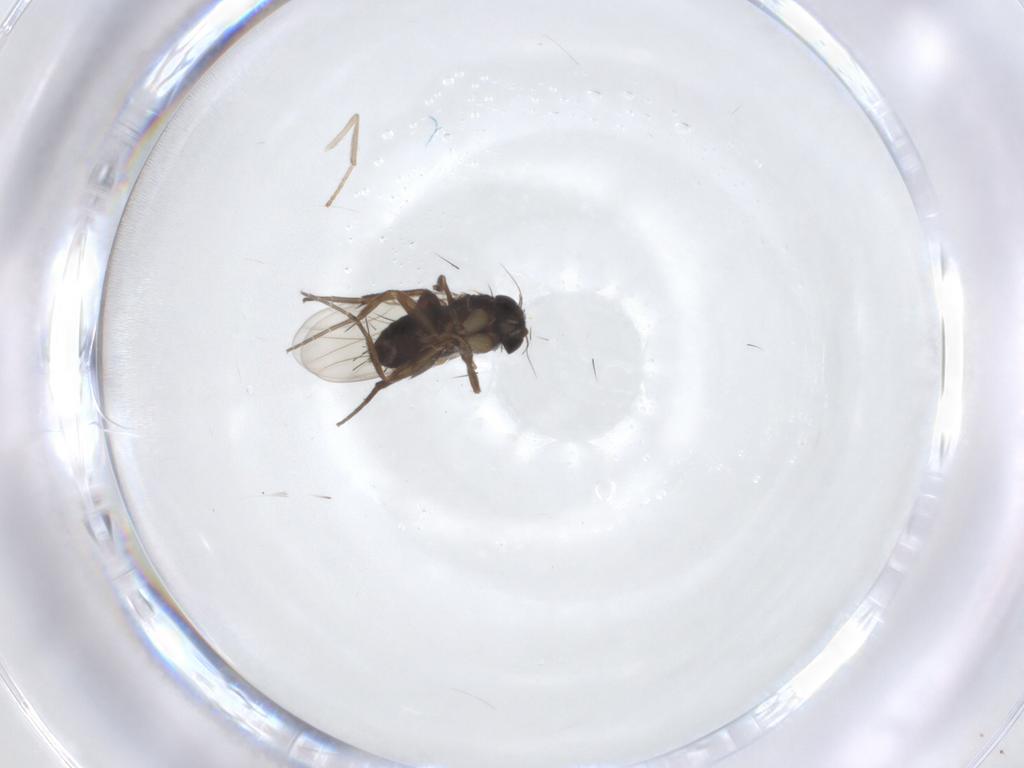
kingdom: Animalia
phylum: Arthropoda
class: Insecta
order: Diptera
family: Phoridae
